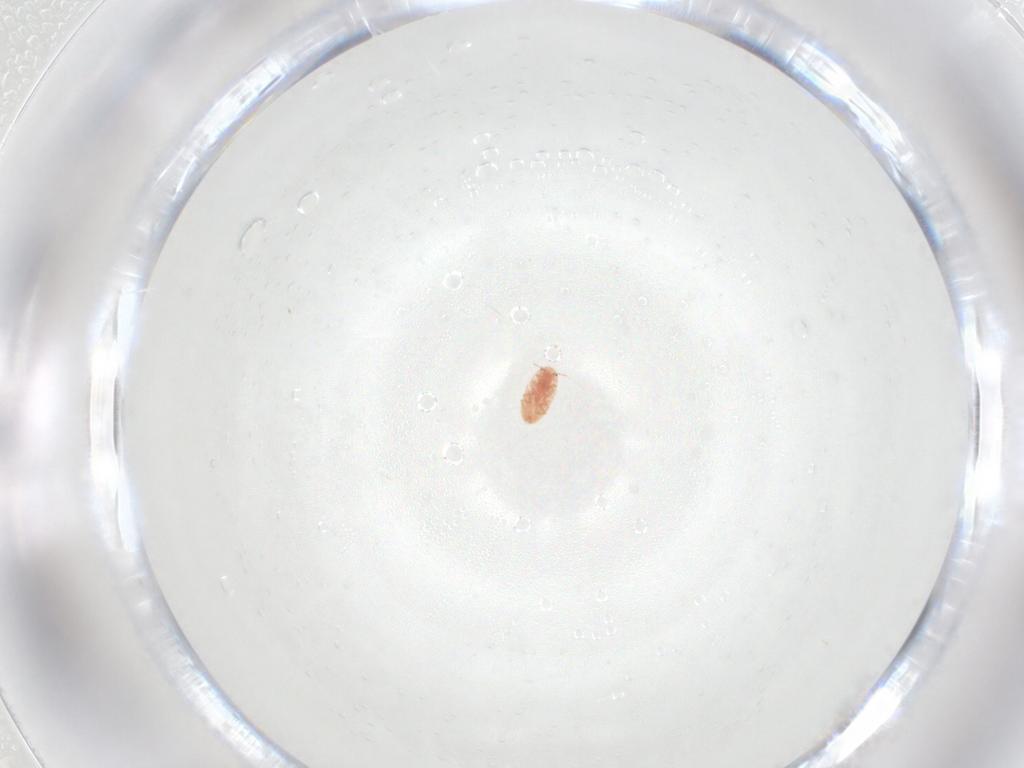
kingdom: Animalia
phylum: Arthropoda
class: Insecta
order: Hemiptera
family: Coccidae
